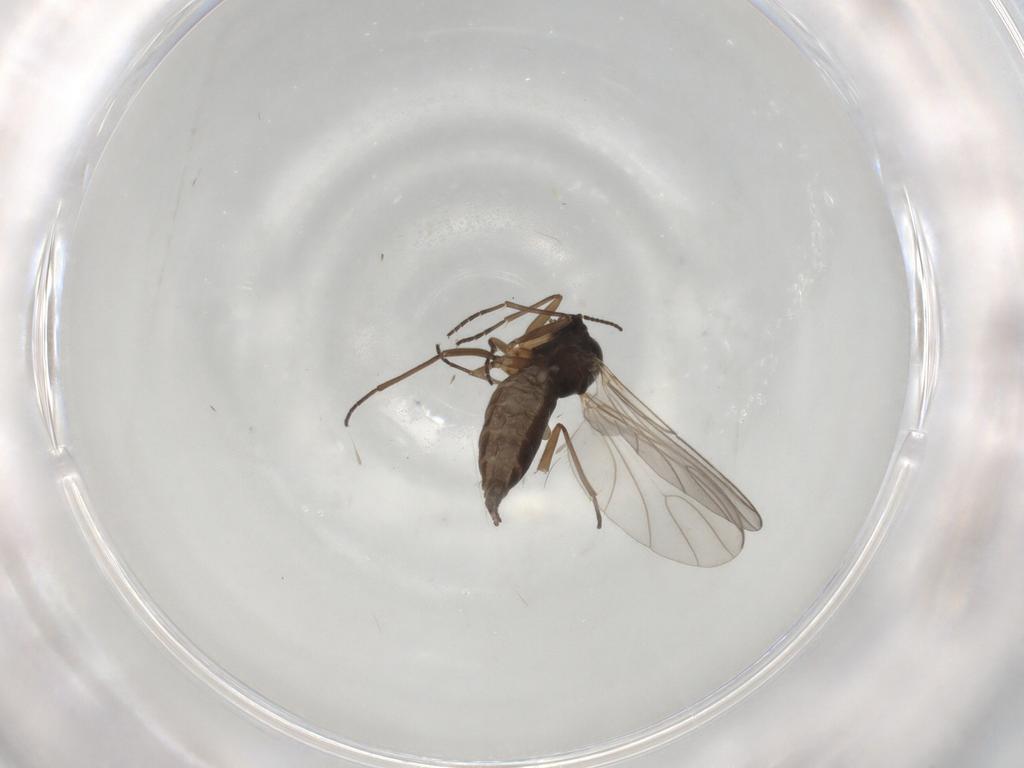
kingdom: Animalia
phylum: Arthropoda
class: Insecta
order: Diptera
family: Sciaridae
